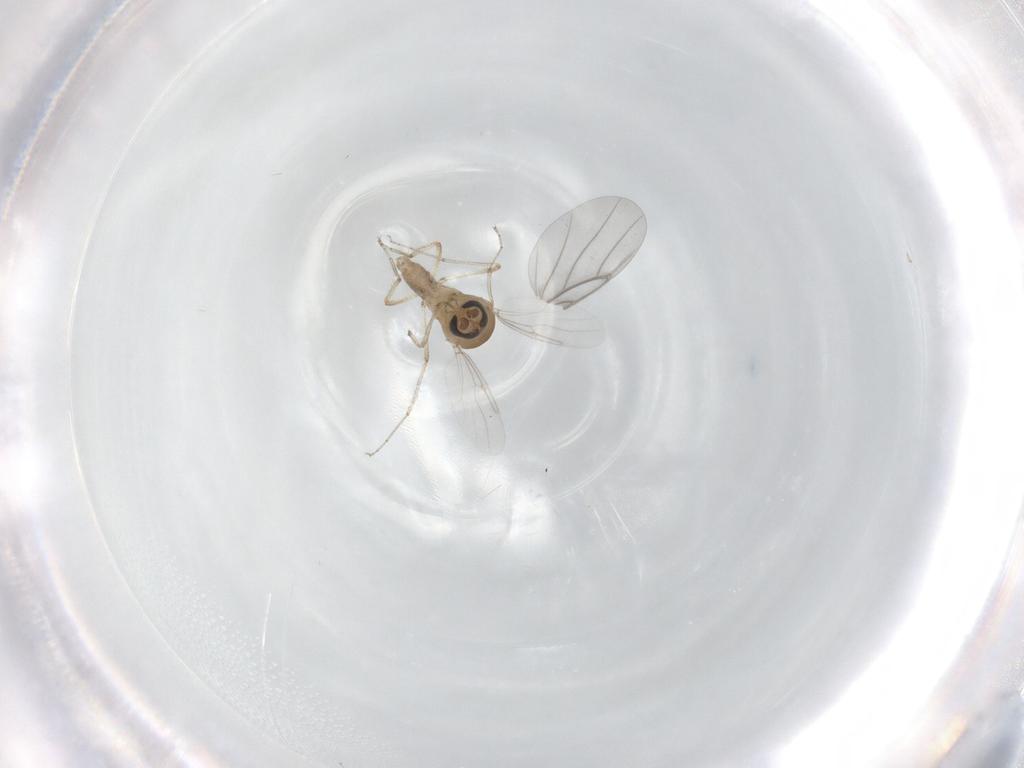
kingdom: Animalia
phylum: Arthropoda
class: Insecta
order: Diptera
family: Ceratopogonidae
